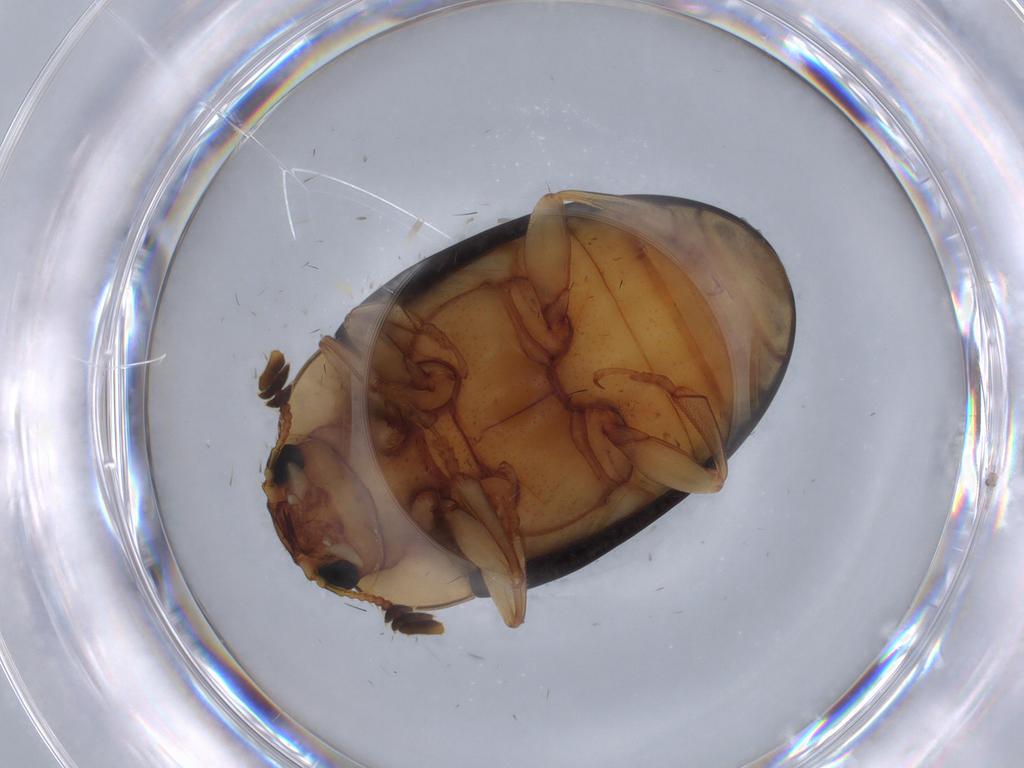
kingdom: Animalia
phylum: Arthropoda
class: Insecta
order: Coleoptera
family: Erotylidae
